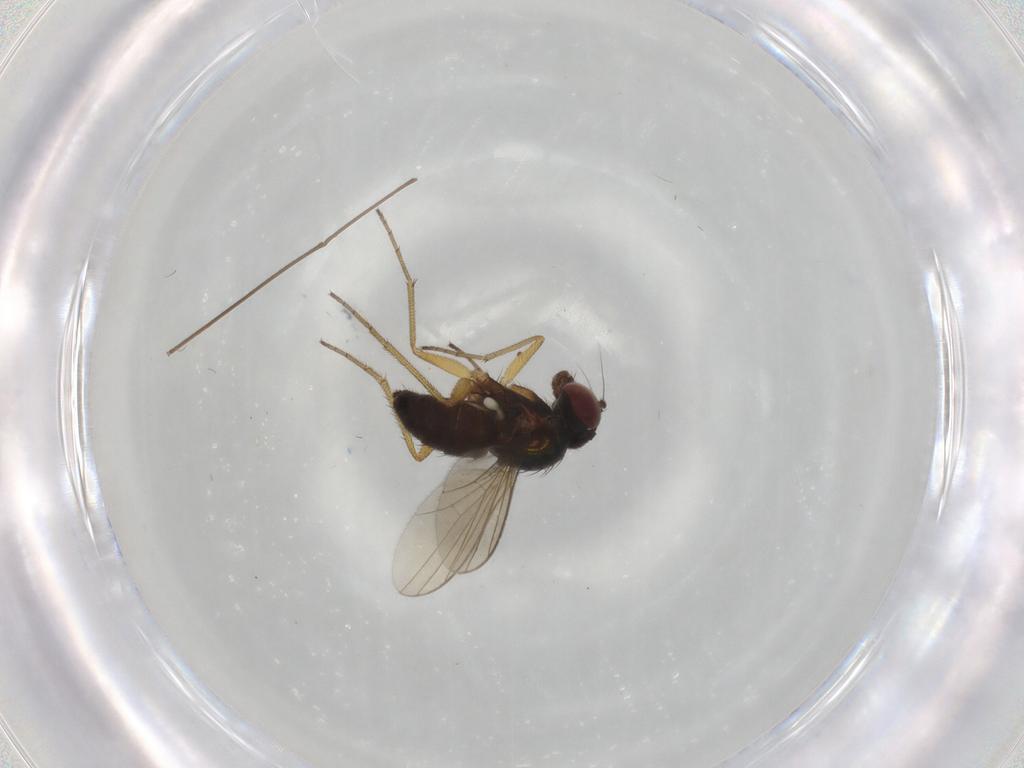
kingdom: Animalia
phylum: Arthropoda
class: Insecta
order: Diptera
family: Dolichopodidae
